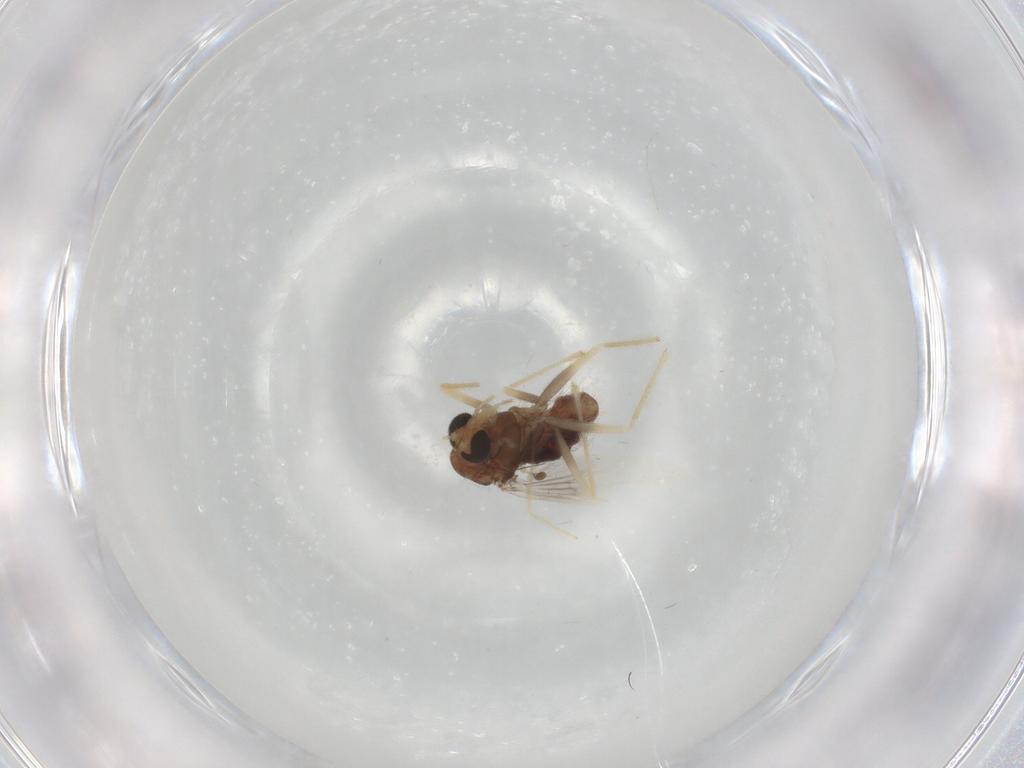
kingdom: Animalia
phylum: Arthropoda
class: Insecta
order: Diptera
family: Chironomidae
